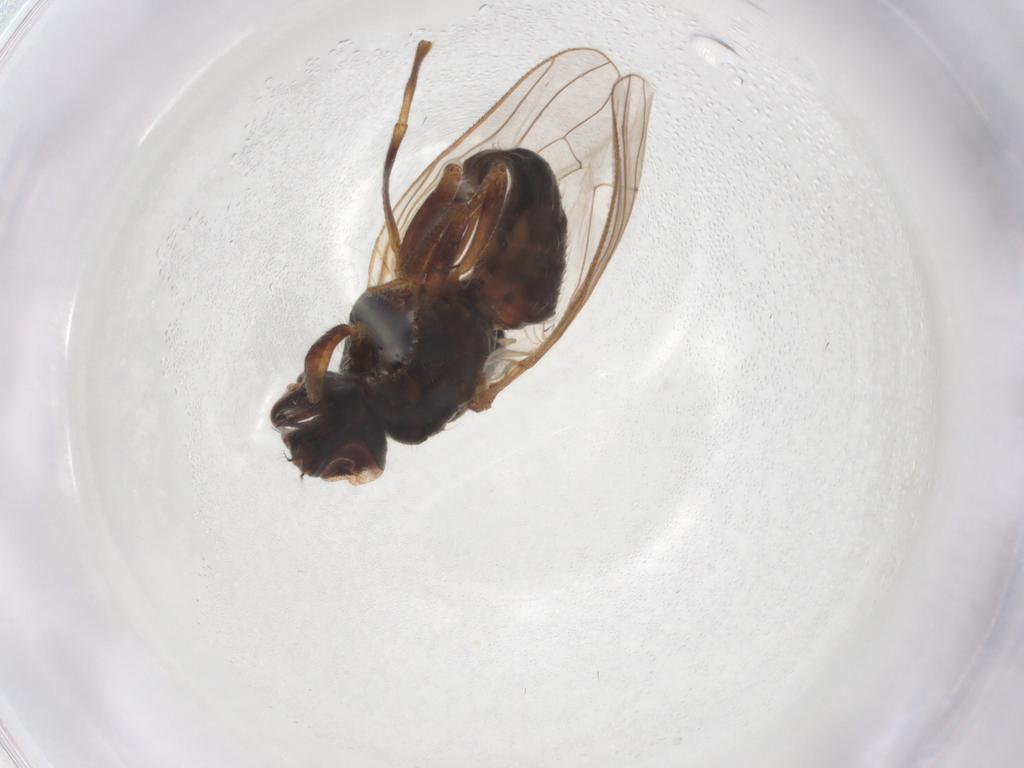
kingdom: Animalia
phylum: Arthropoda
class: Insecta
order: Diptera
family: Muscidae
